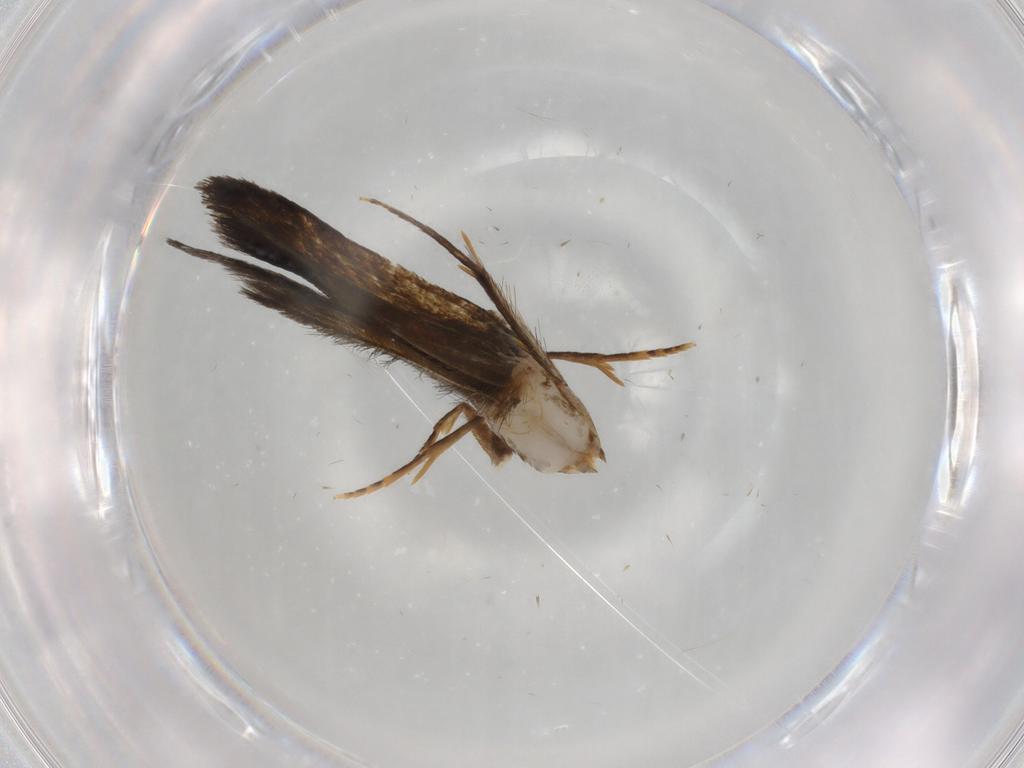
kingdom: Animalia
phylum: Arthropoda
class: Insecta
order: Lepidoptera
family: Tineidae
